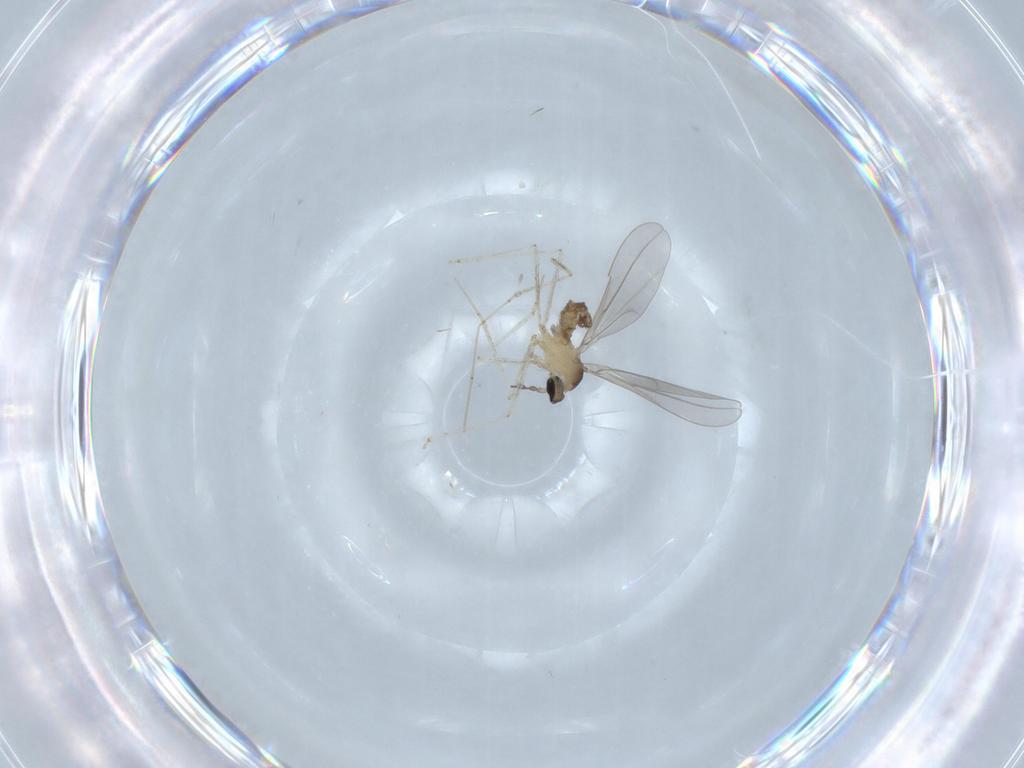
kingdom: Animalia
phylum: Arthropoda
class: Insecta
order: Diptera
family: Cecidomyiidae
